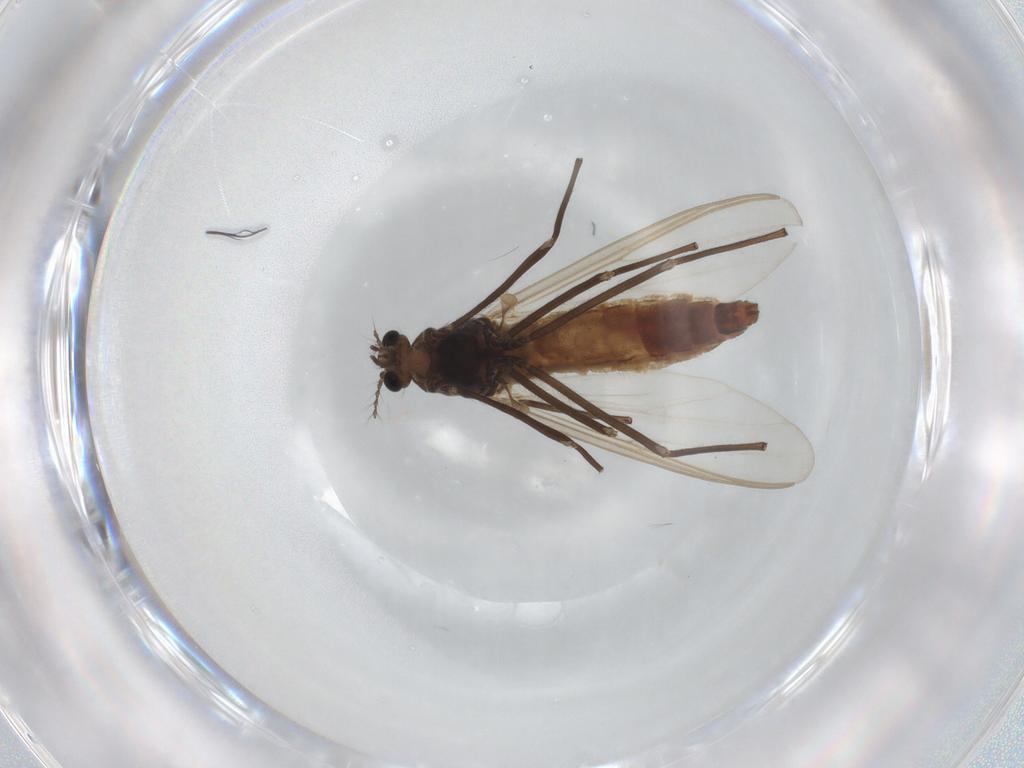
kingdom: Animalia
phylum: Arthropoda
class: Insecta
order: Diptera
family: Chironomidae
